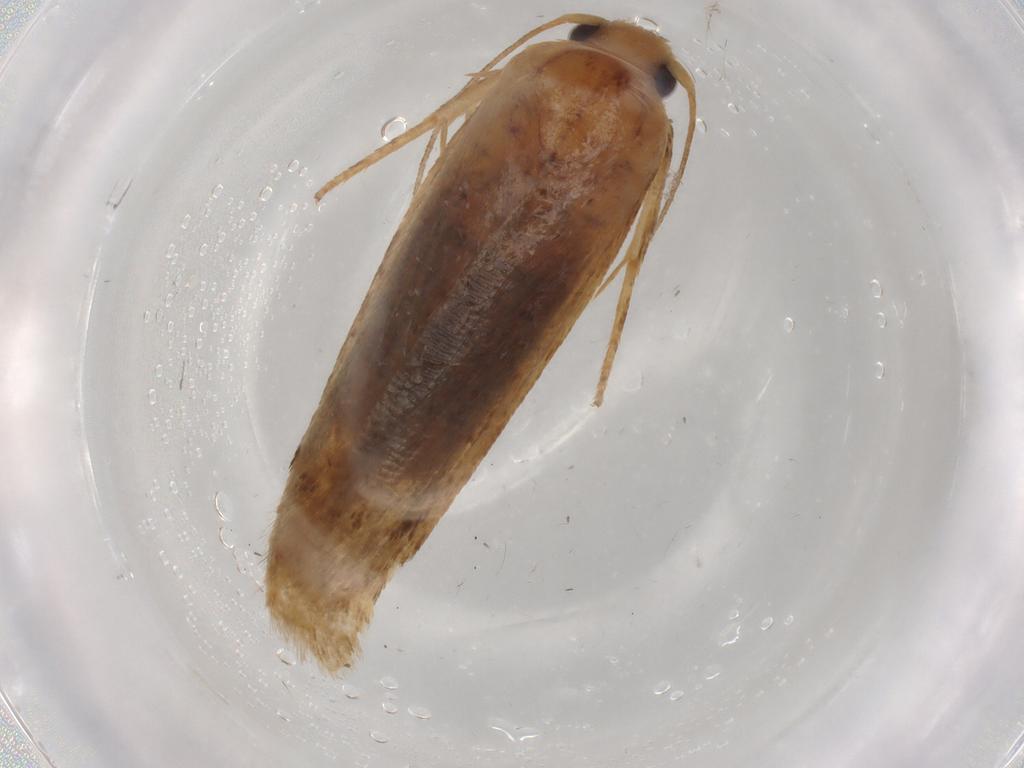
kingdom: Animalia
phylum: Arthropoda
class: Insecta
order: Lepidoptera
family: Blastobasidae
